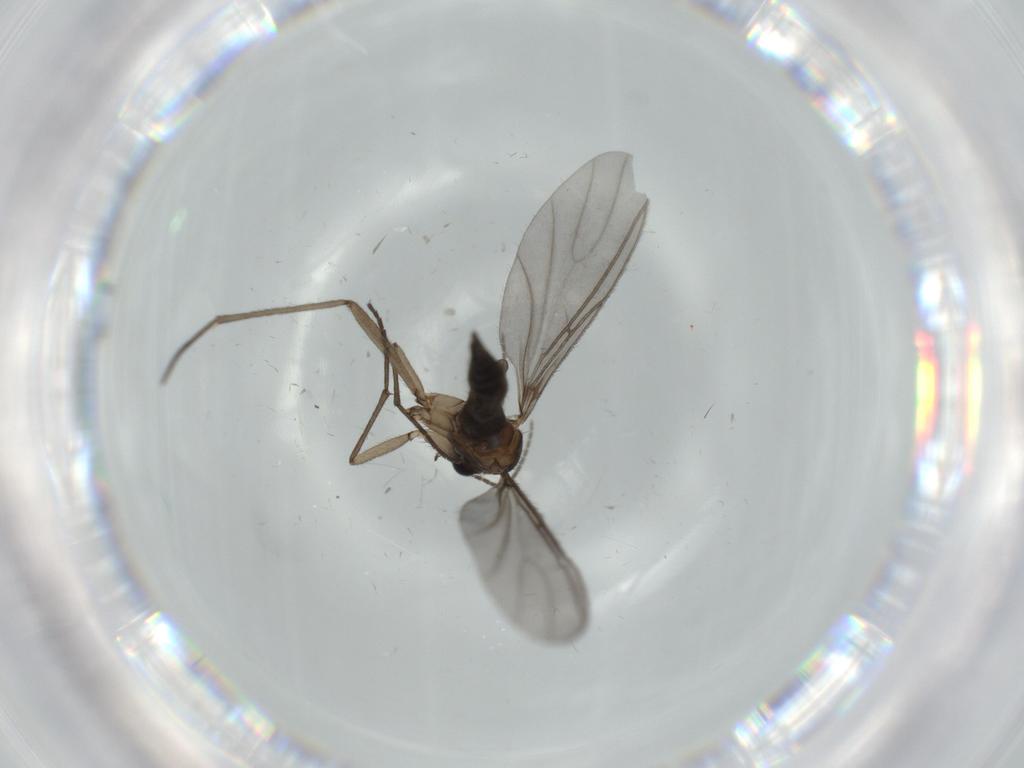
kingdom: Animalia
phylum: Arthropoda
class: Insecta
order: Diptera
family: Sciaridae
